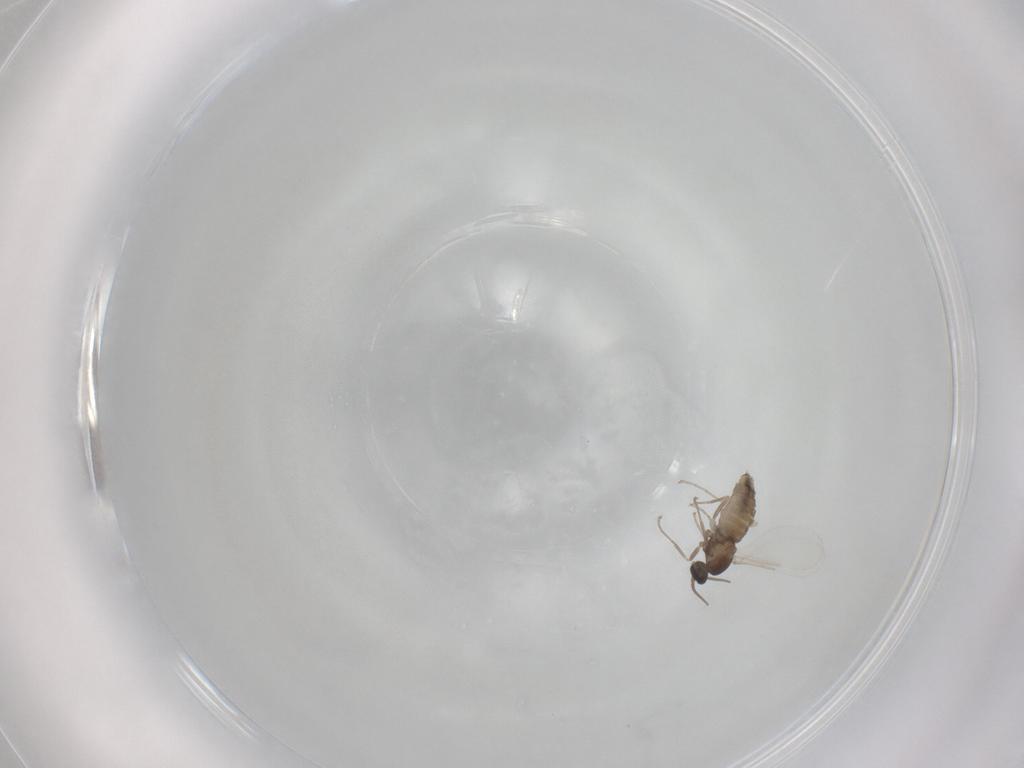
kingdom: Animalia
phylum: Arthropoda
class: Insecta
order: Diptera
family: Cecidomyiidae
